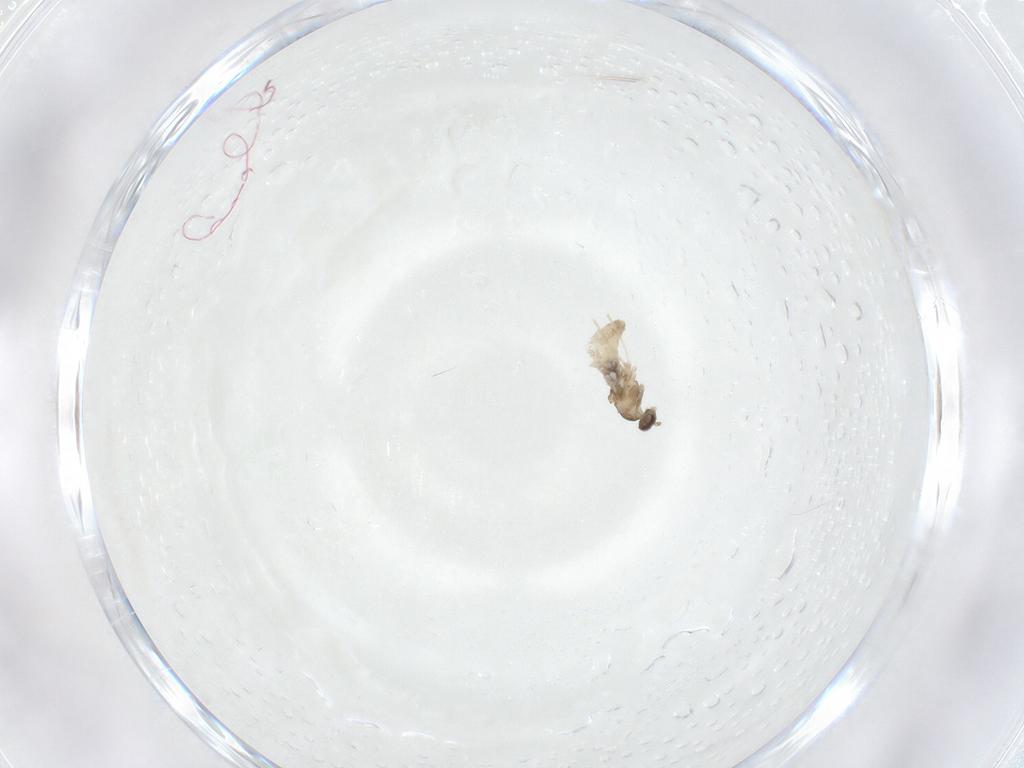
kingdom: Animalia
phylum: Arthropoda
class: Insecta
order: Diptera
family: Cecidomyiidae
